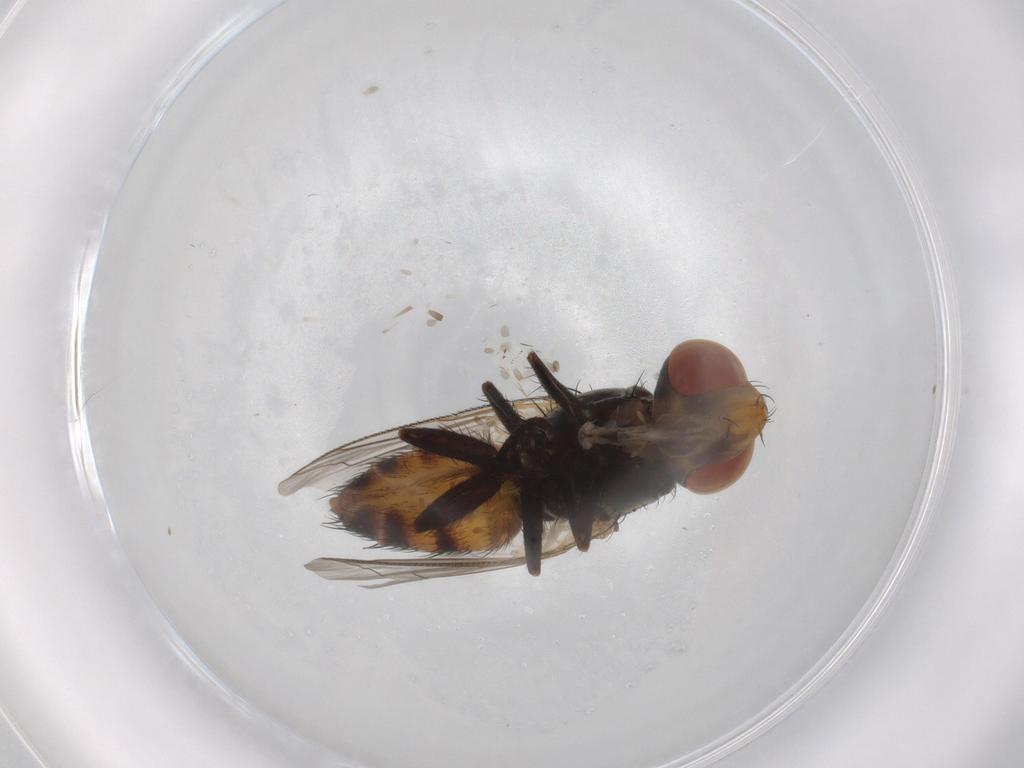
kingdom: Animalia
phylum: Arthropoda
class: Insecta
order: Diptera
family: Sarcophagidae
